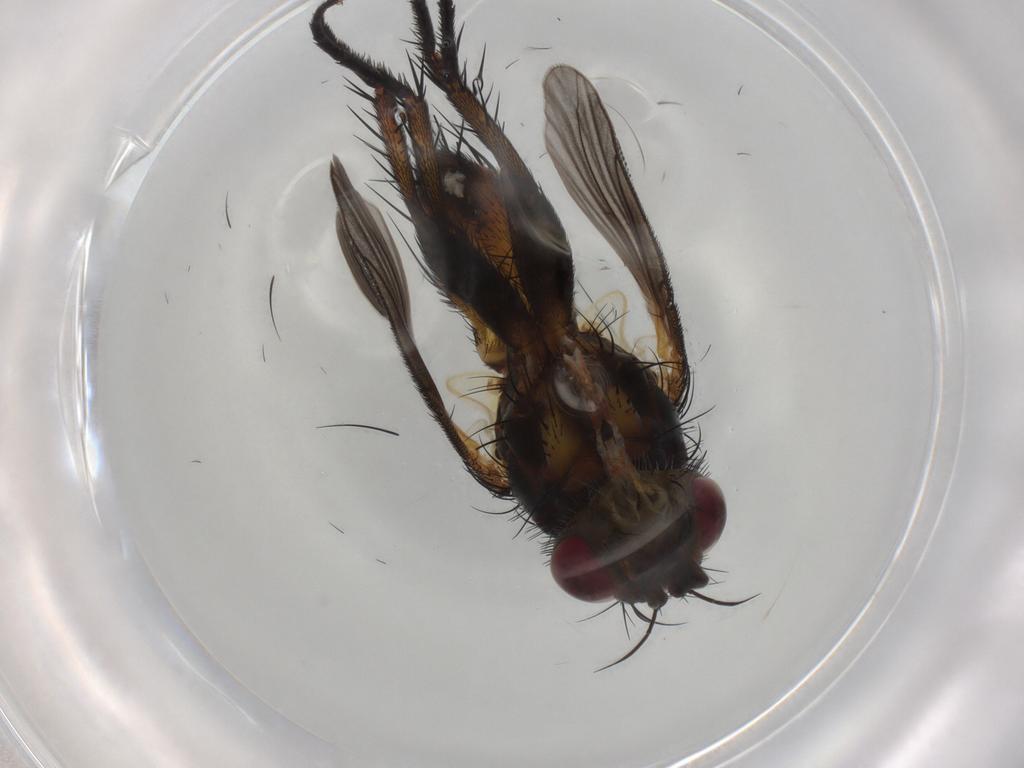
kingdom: Animalia
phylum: Arthropoda
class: Insecta
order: Diptera
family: Tachinidae
